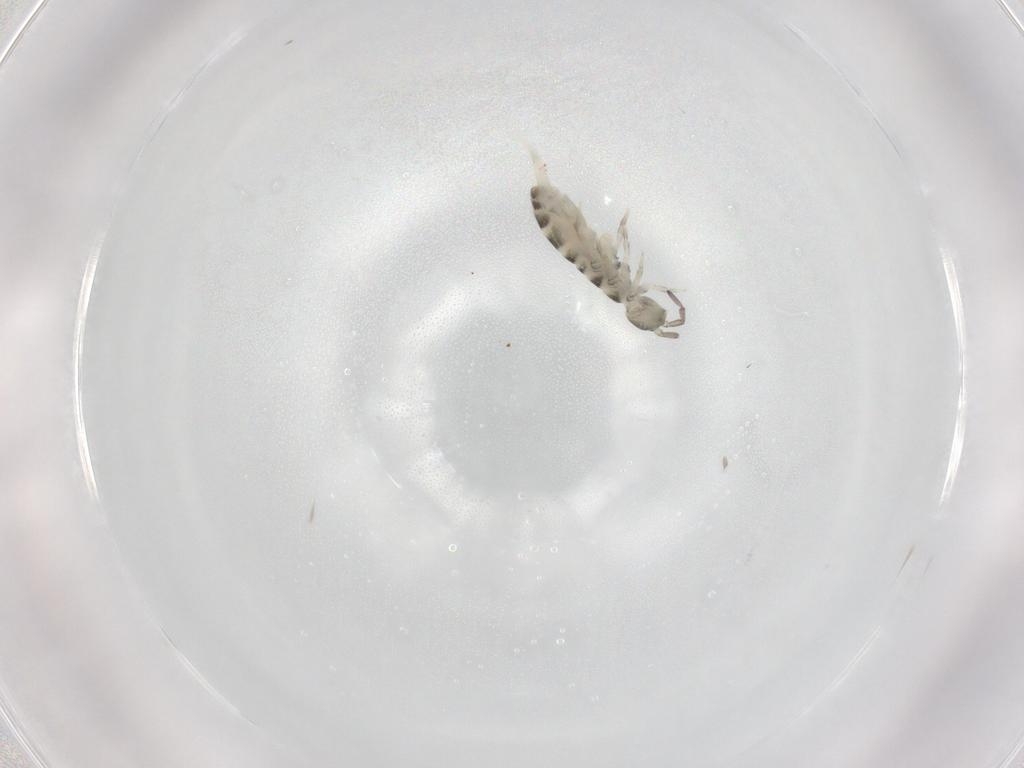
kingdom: Animalia
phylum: Arthropoda
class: Collembola
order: Entomobryomorpha
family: Isotomidae
